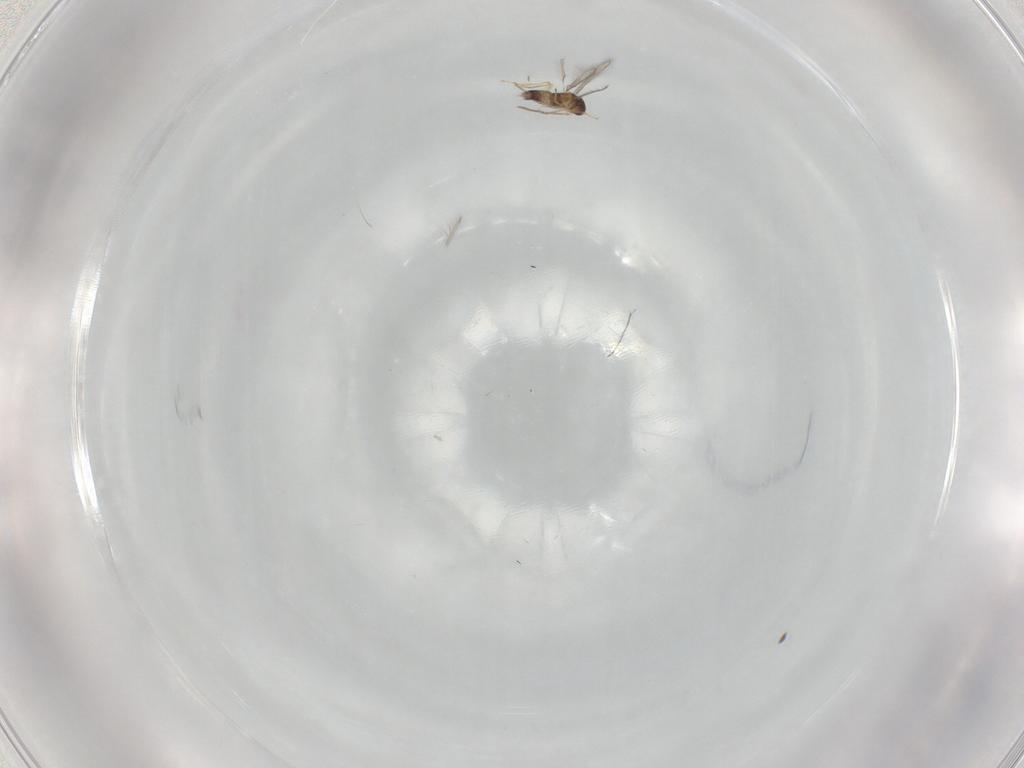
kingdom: Animalia
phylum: Arthropoda
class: Insecta
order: Hymenoptera
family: Mymaridae
